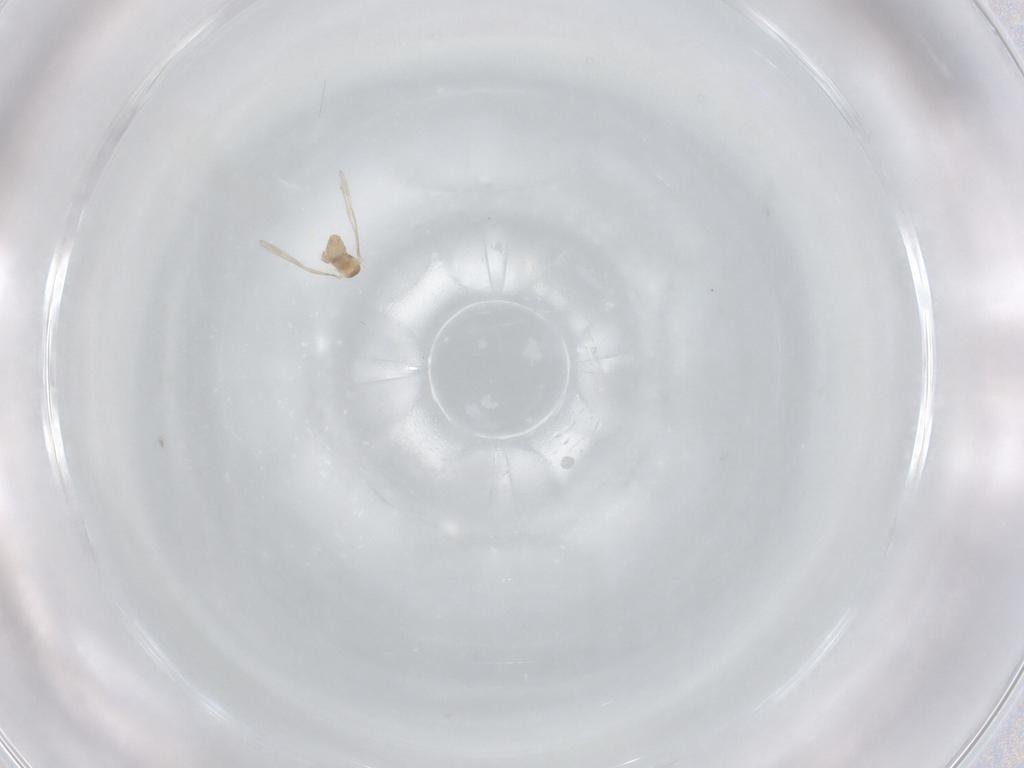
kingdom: Animalia
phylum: Arthropoda
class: Insecta
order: Diptera
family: Cecidomyiidae
